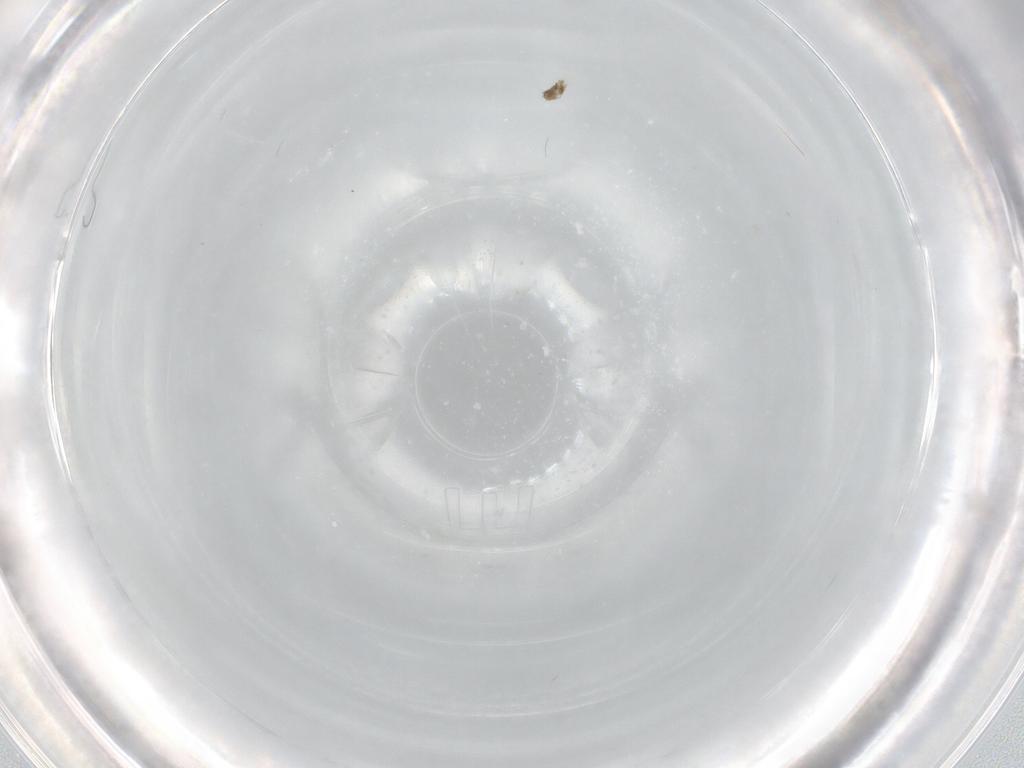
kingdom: Animalia
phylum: Arthropoda
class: Insecta
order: Diptera
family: Cecidomyiidae
